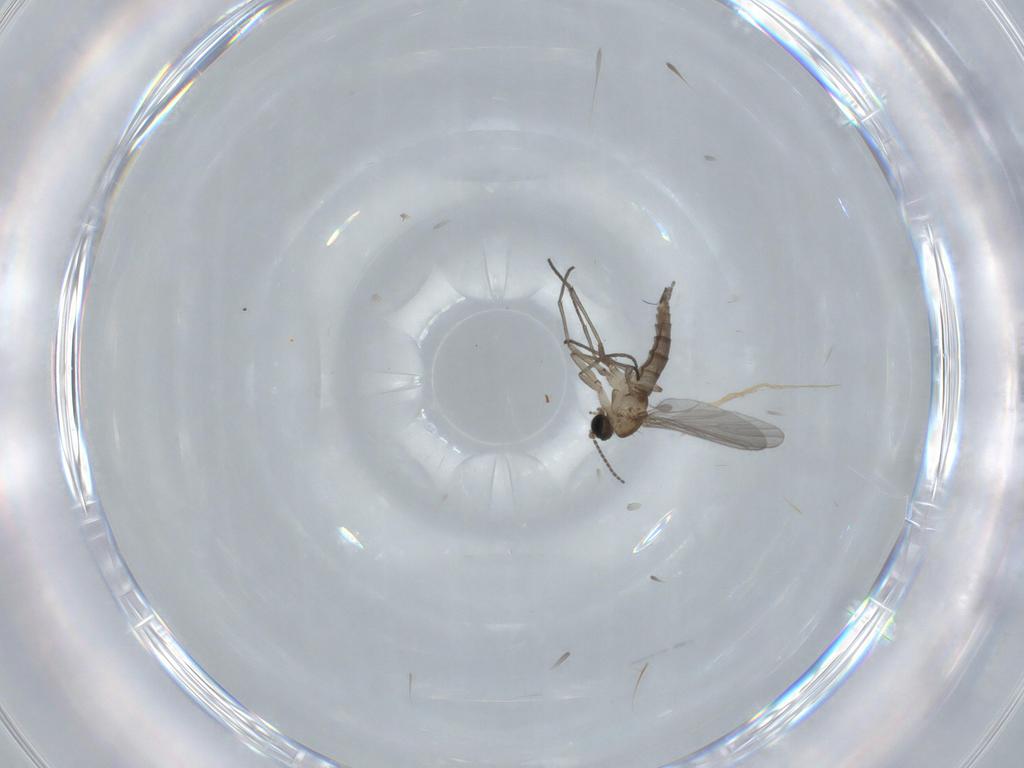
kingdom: Animalia
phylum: Arthropoda
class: Insecta
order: Diptera
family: Sciaridae
